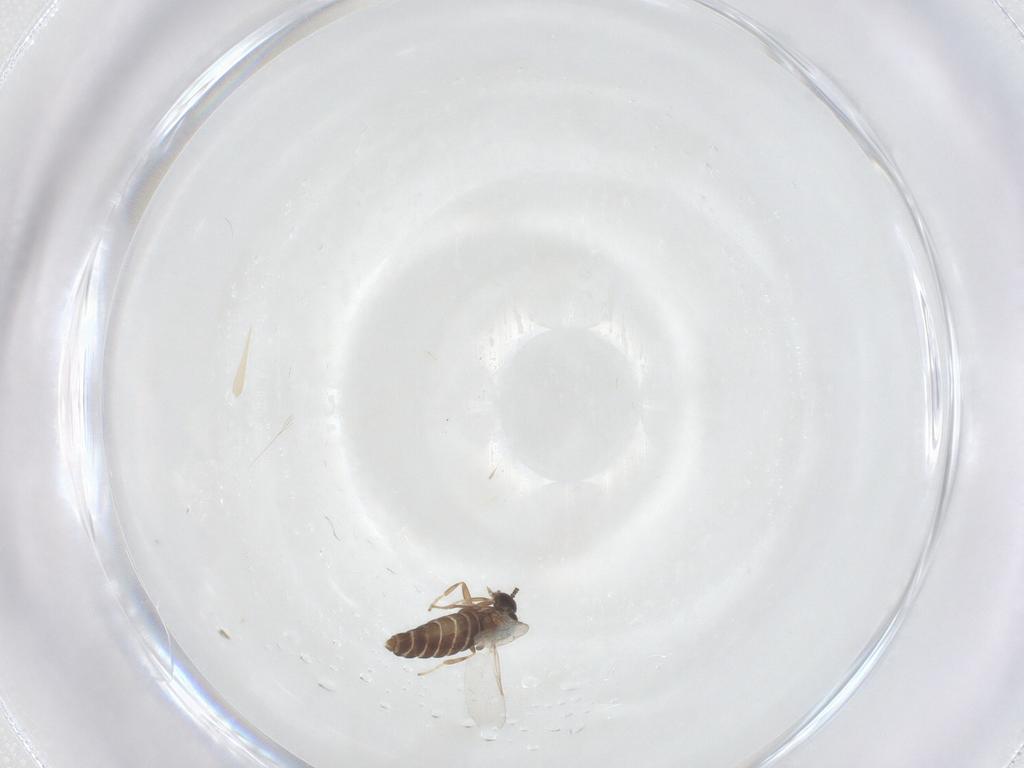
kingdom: Animalia
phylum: Arthropoda
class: Insecta
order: Diptera
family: Scatopsidae
